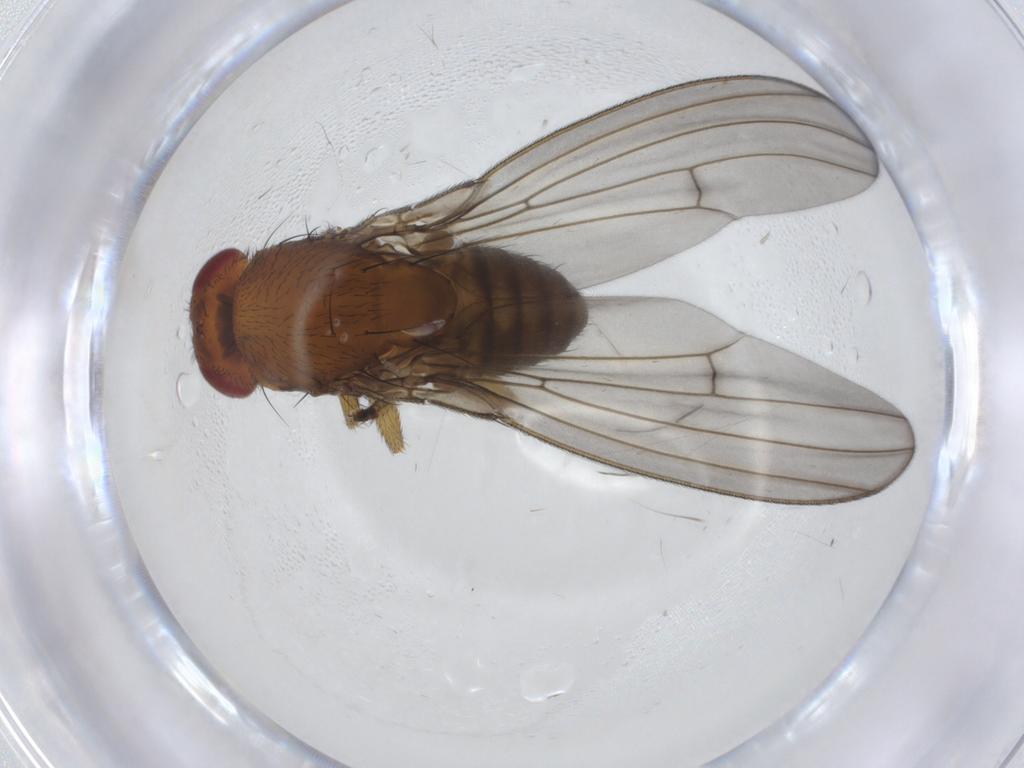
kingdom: Animalia
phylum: Arthropoda
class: Insecta
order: Diptera
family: Drosophilidae
